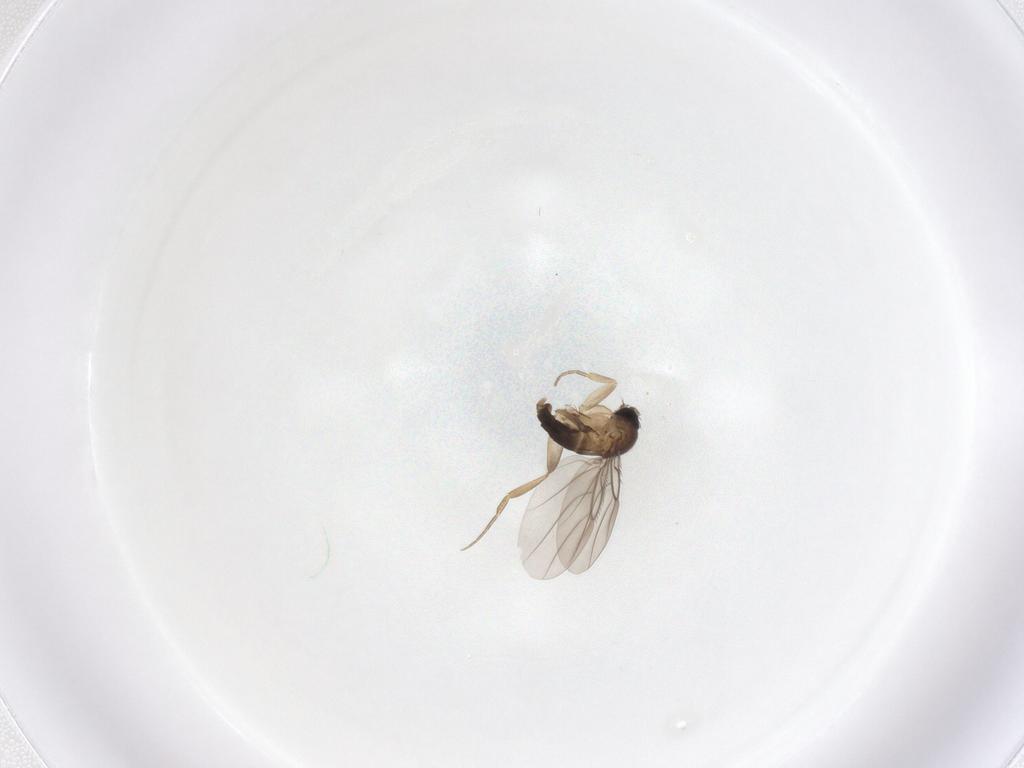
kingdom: Animalia
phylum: Arthropoda
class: Insecta
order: Diptera
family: Phoridae
